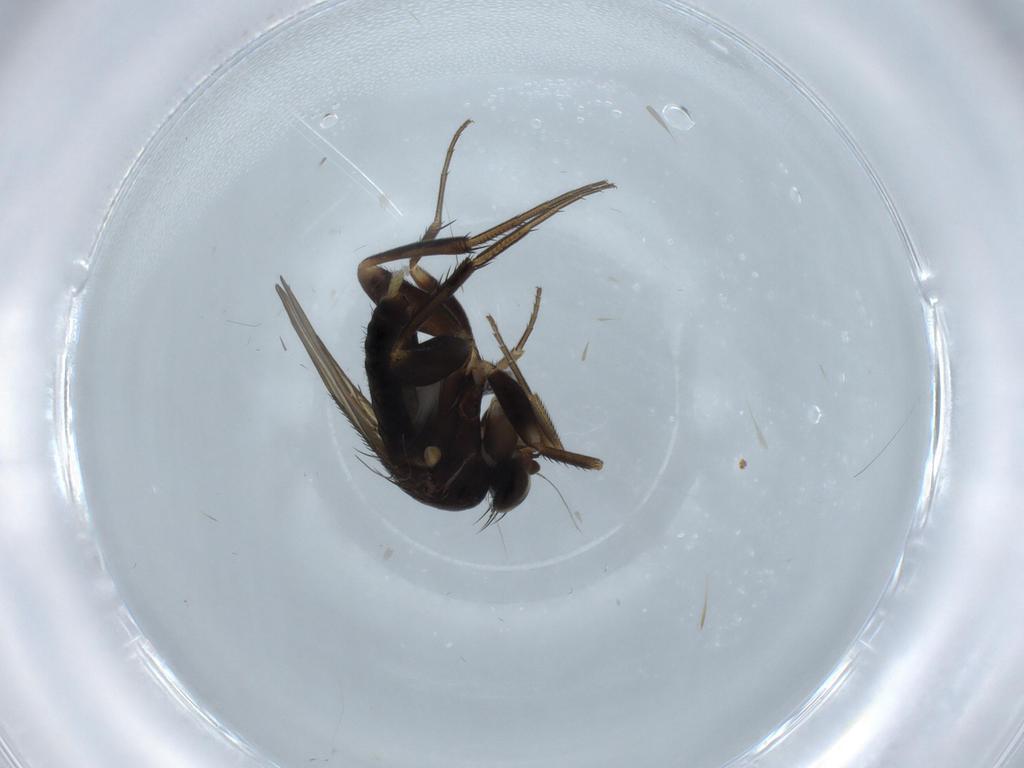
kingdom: Animalia
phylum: Arthropoda
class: Insecta
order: Diptera
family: Phoridae
